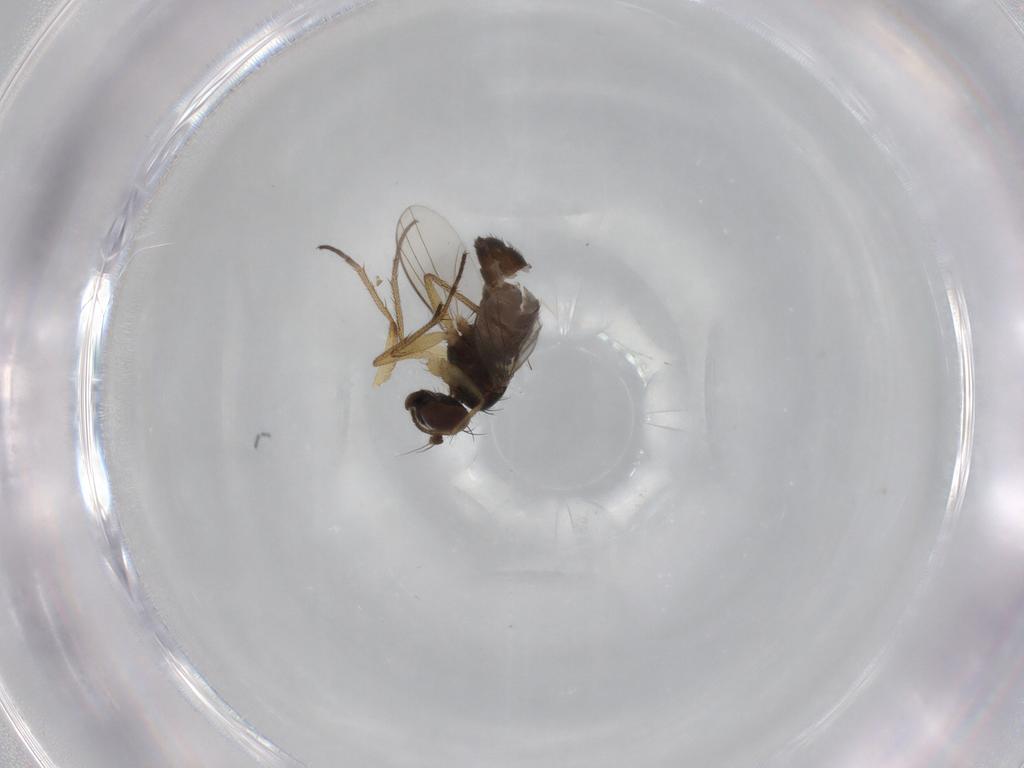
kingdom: Animalia
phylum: Arthropoda
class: Insecta
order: Diptera
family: Dolichopodidae
